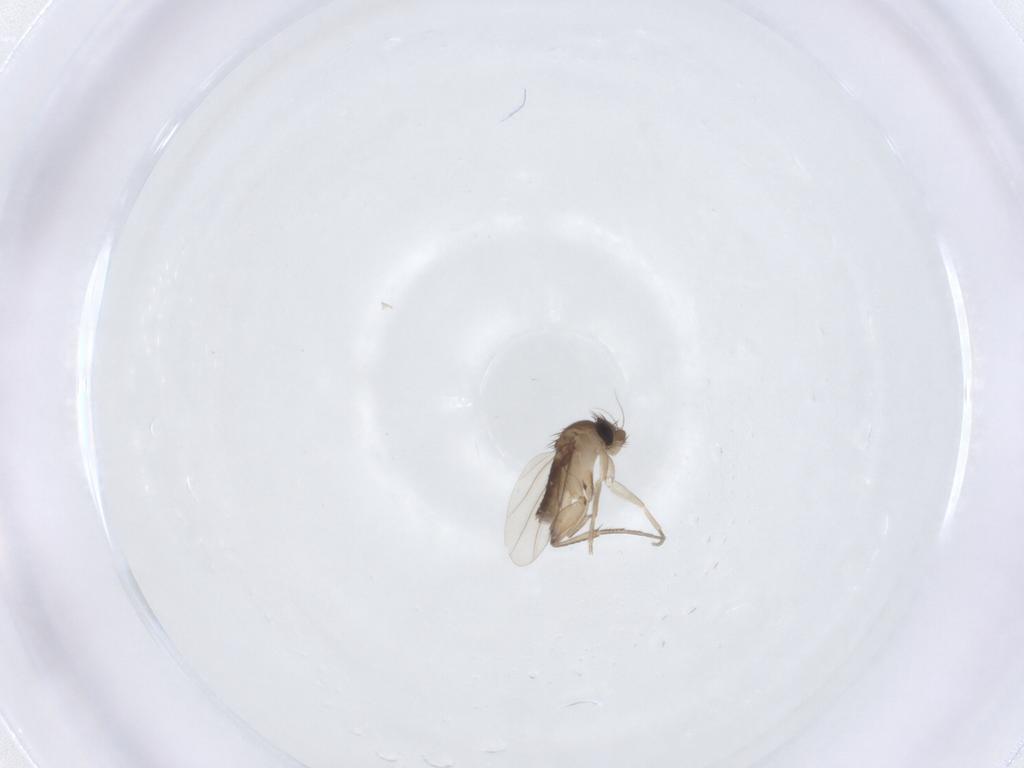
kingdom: Animalia
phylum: Arthropoda
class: Insecta
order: Diptera
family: Phoridae
